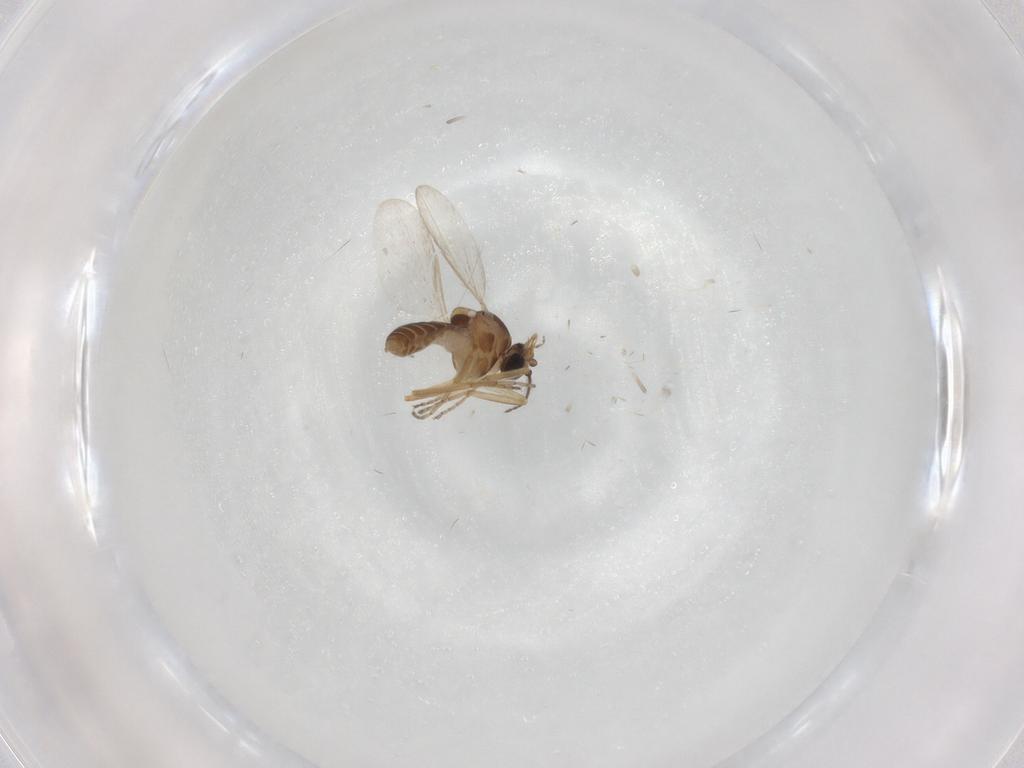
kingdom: Animalia
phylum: Arthropoda
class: Insecta
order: Diptera
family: Ceratopogonidae
